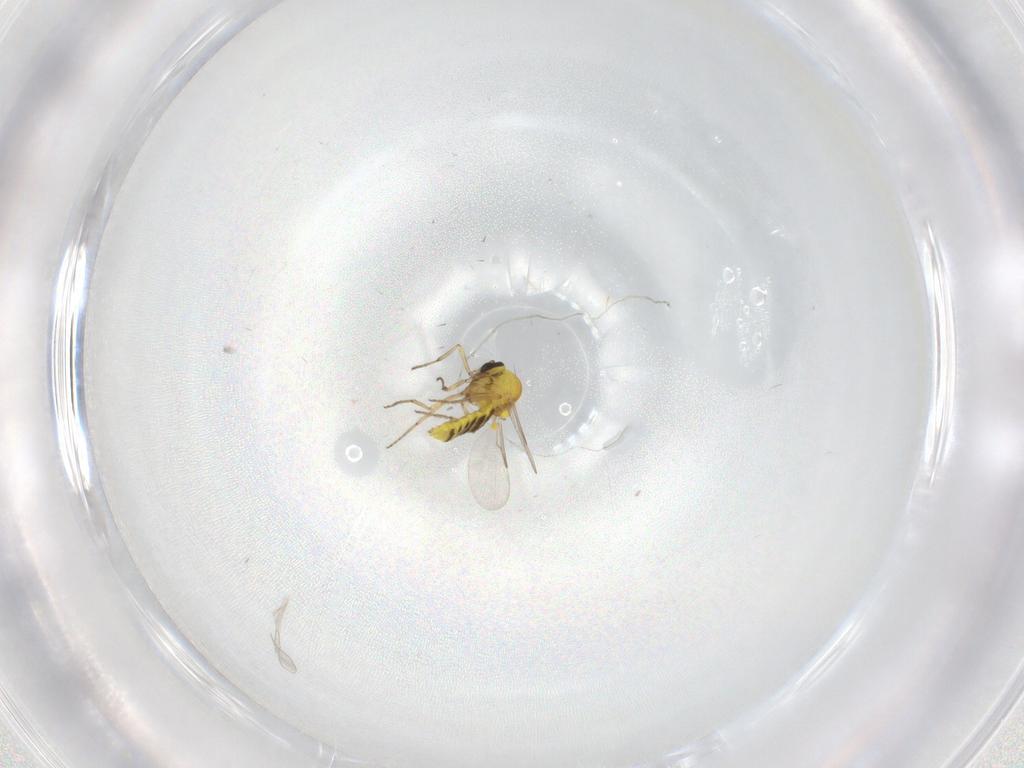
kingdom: Animalia
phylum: Arthropoda
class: Insecta
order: Diptera
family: Ceratopogonidae
